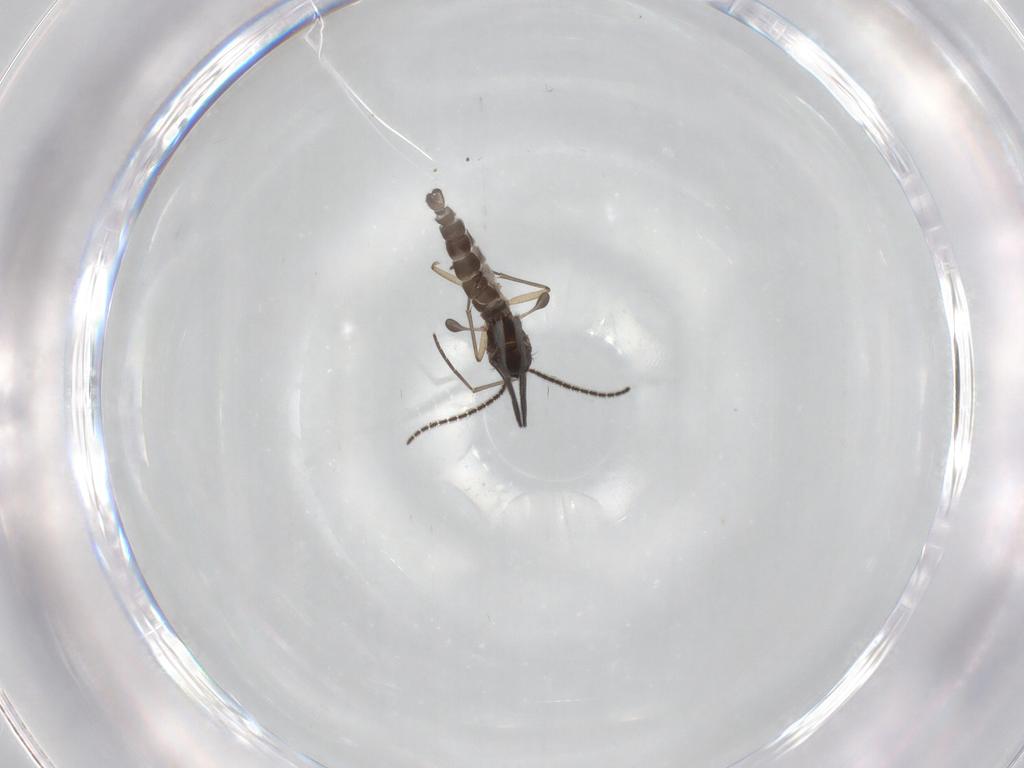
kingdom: Animalia
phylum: Arthropoda
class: Insecta
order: Diptera
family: Sciaridae
